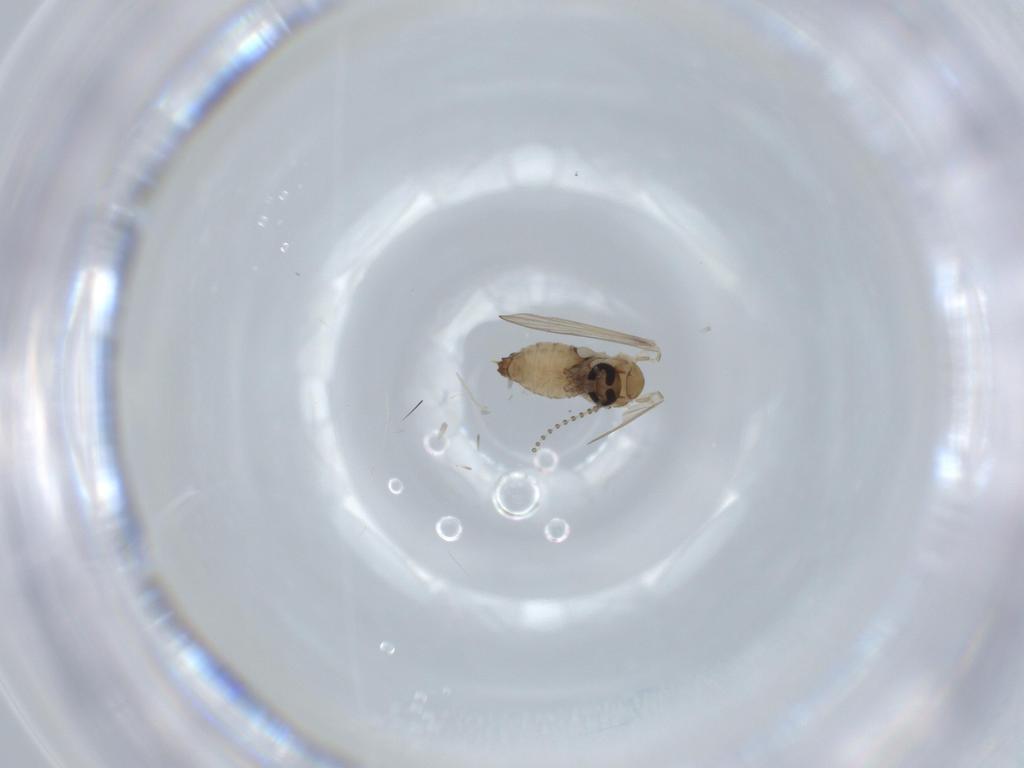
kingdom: Animalia
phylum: Arthropoda
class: Insecta
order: Diptera
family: Psychodidae
